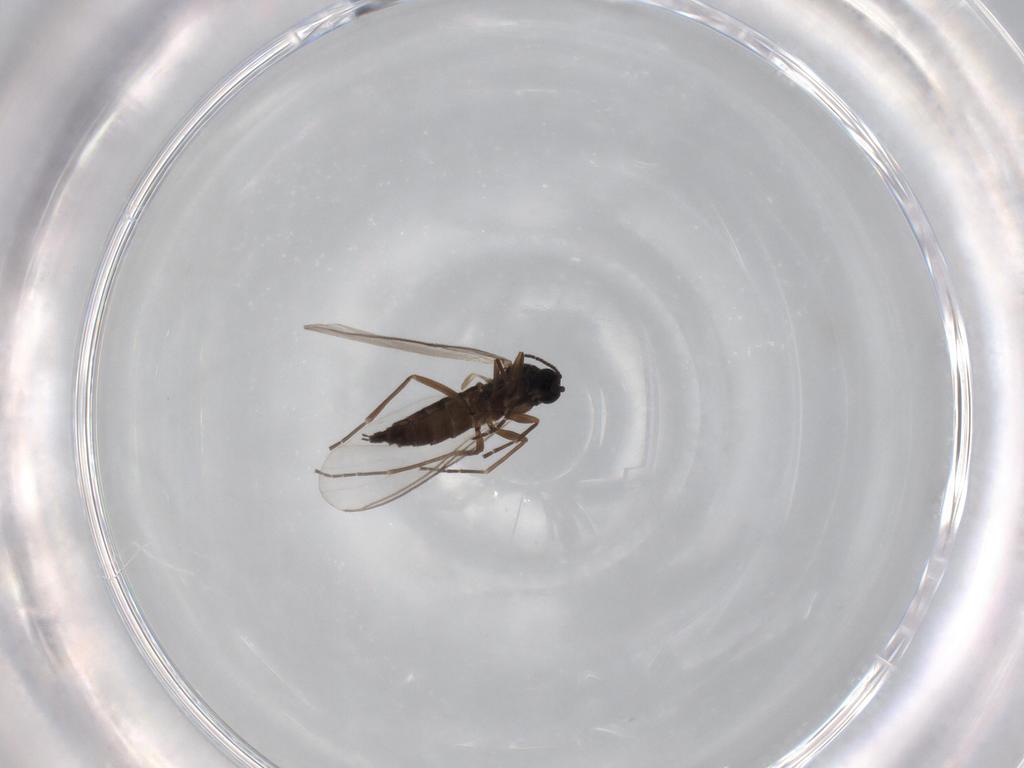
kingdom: Animalia
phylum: Arthropoda
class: Insecta
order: Diptera
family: Sciaridae
